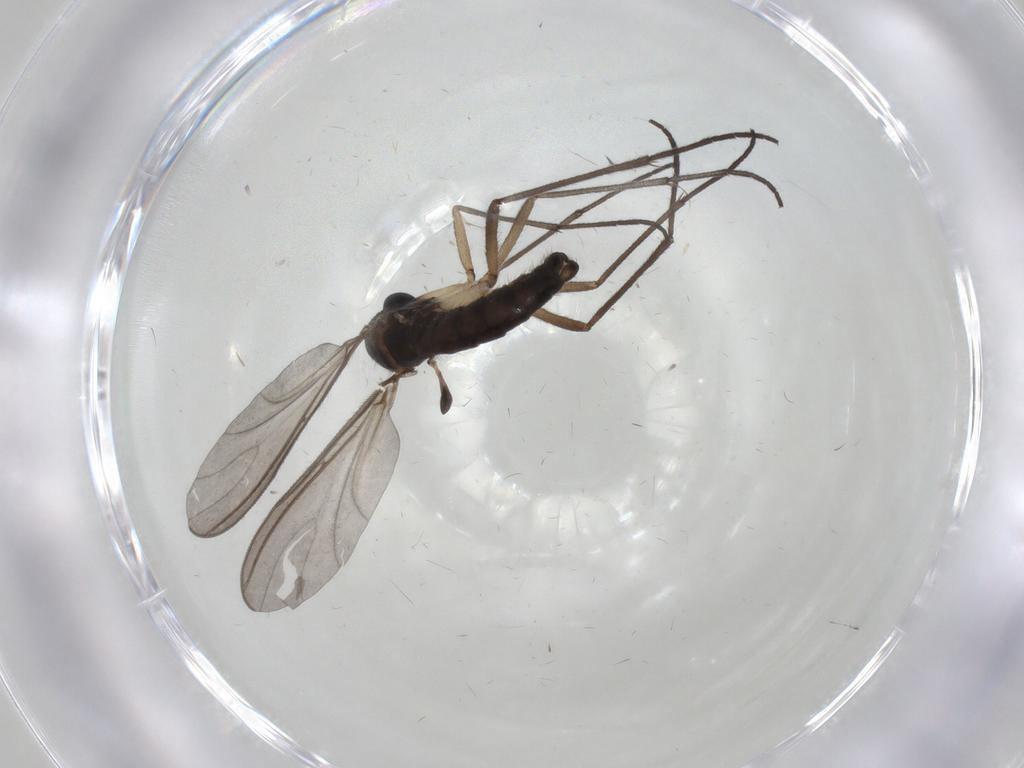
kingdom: Animalia
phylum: Arthropoda
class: Insecta
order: Diptera
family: Sciaridae
